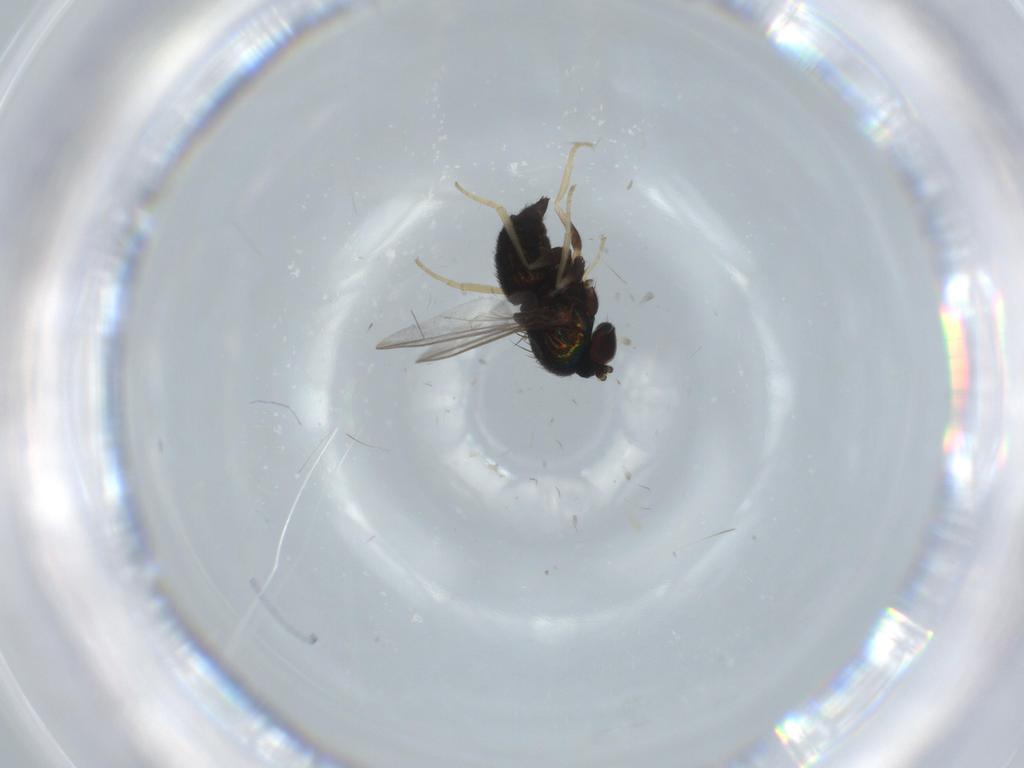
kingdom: Animalia
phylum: Arthropoda
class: Insecta
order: Diptera
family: Dolichopodidae
